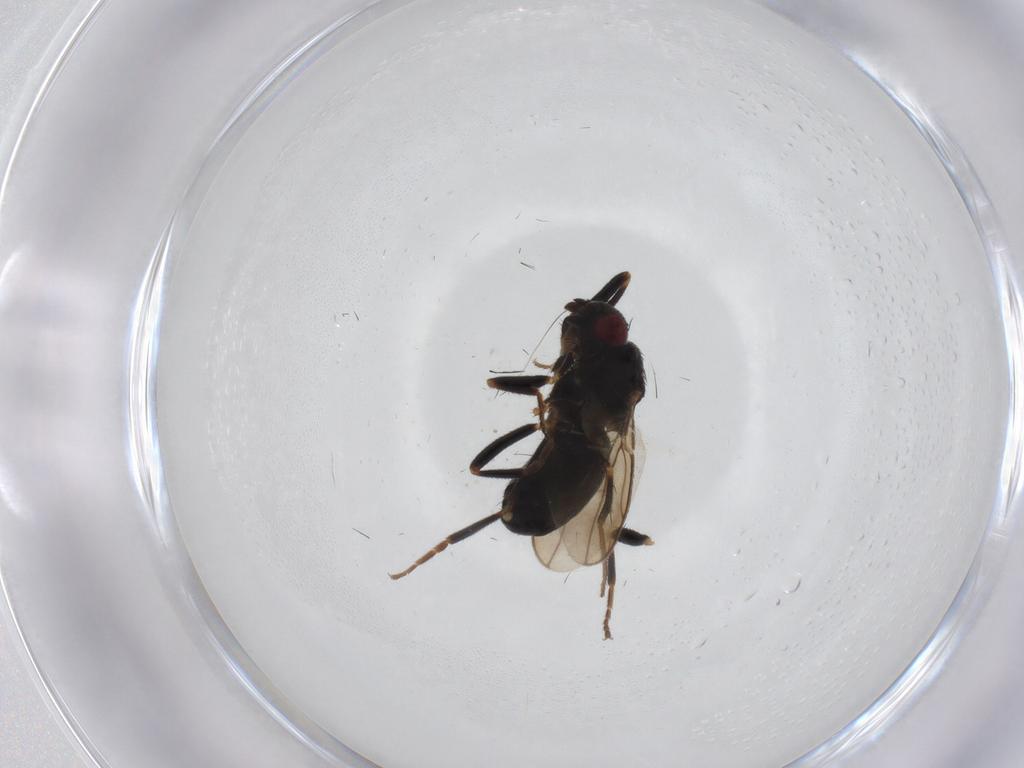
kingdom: Animalia
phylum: Arthropoda
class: Insecta
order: Diptera
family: Sphaeroceridae
